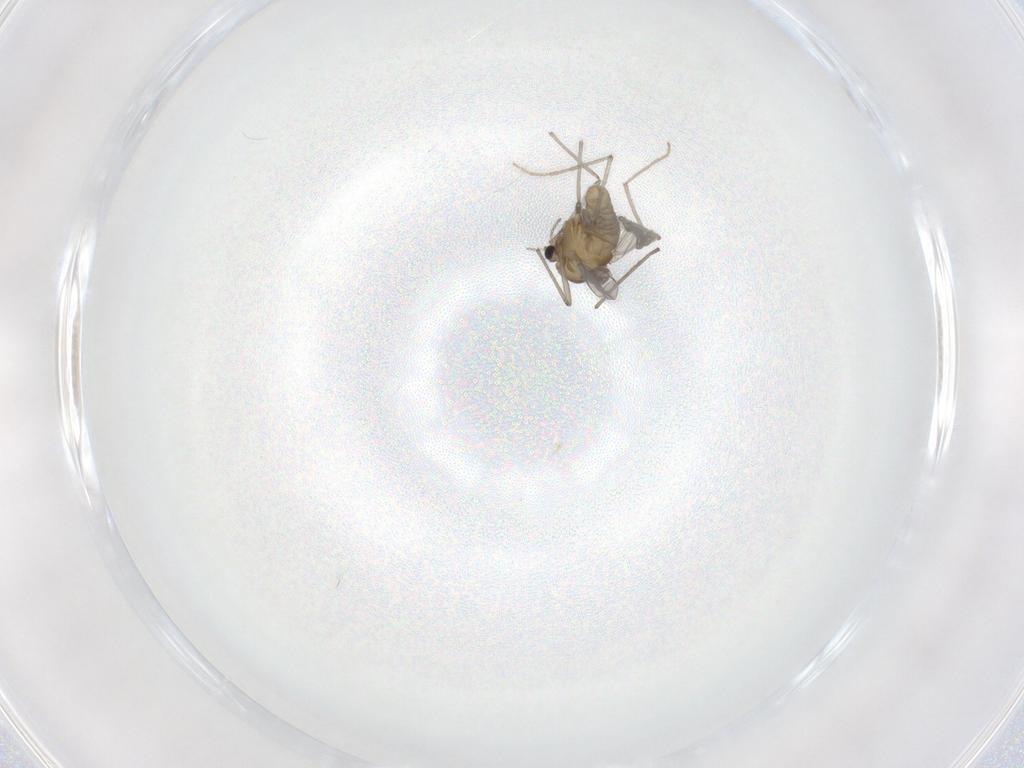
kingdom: Animalia
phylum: Arthropoda
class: Insecta
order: Diptera
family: Chironomidae
